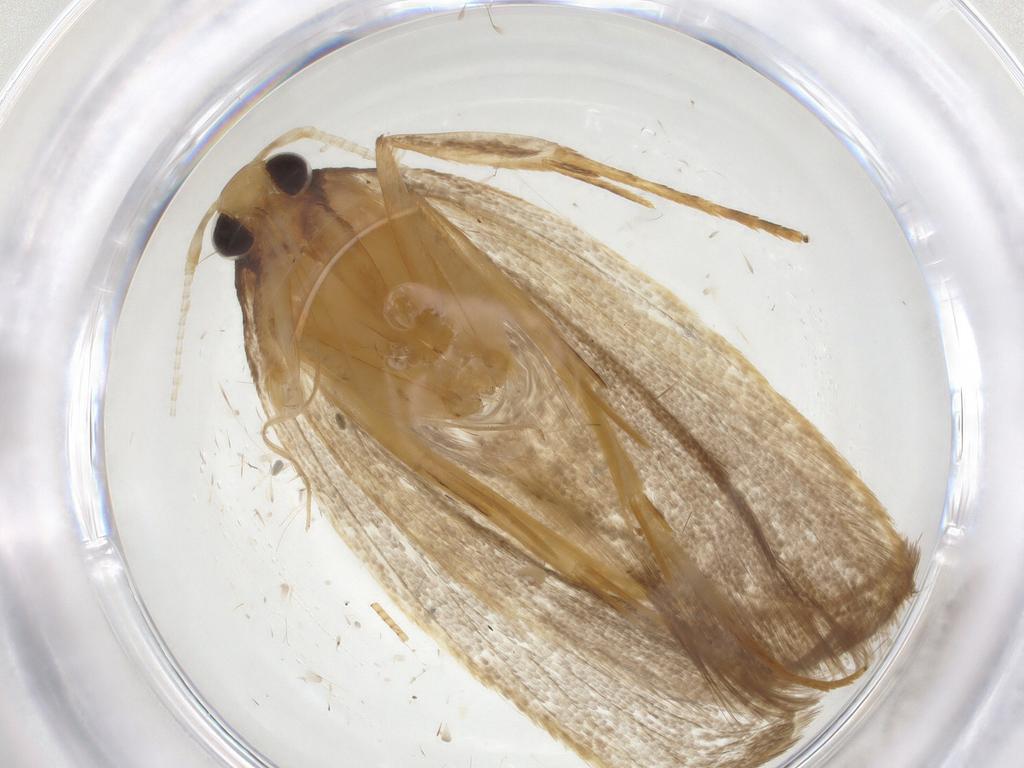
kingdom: Animalia
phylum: Arthropoda
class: Insecta
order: Lepidoptera
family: Lecithoceridae
